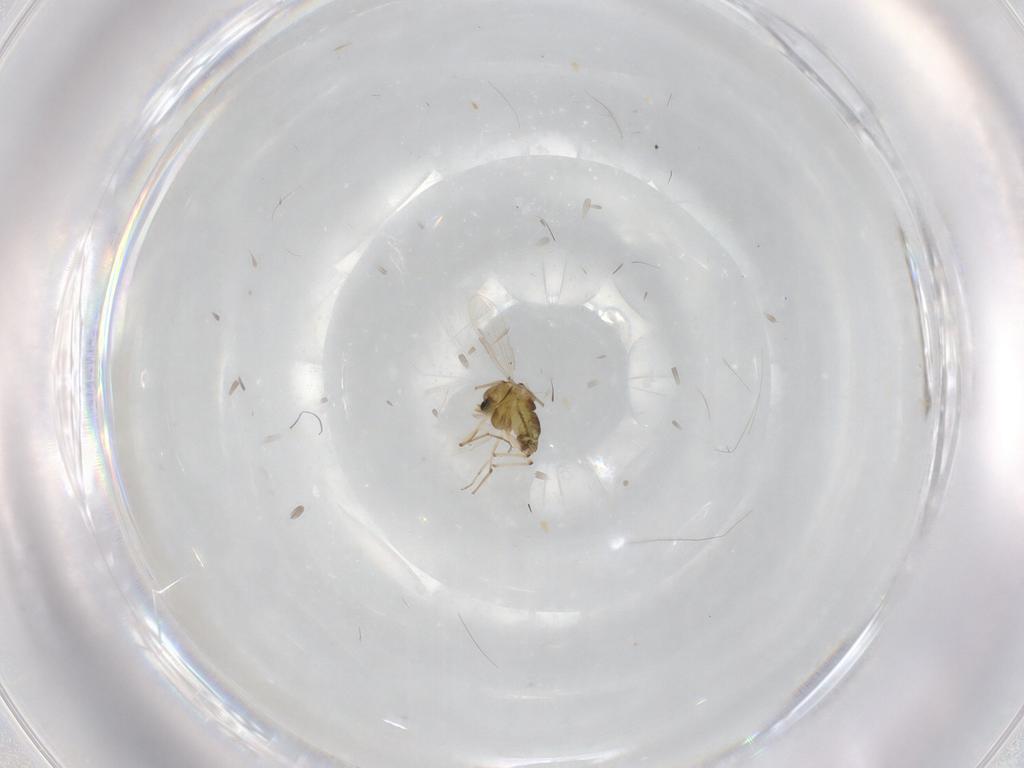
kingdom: Animalia
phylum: Arthropoda
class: Insecta
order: Diptera
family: Chironomidae
